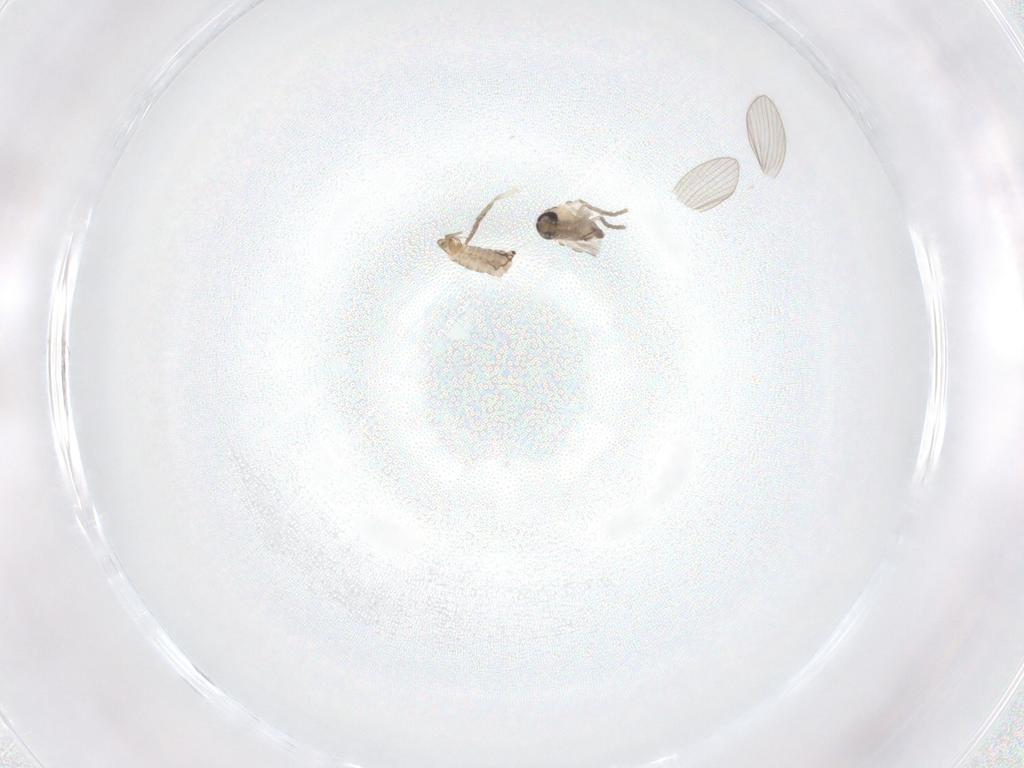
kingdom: Animalia
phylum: Arthropoda
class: Insecta
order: Diptera
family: Psychodidae
